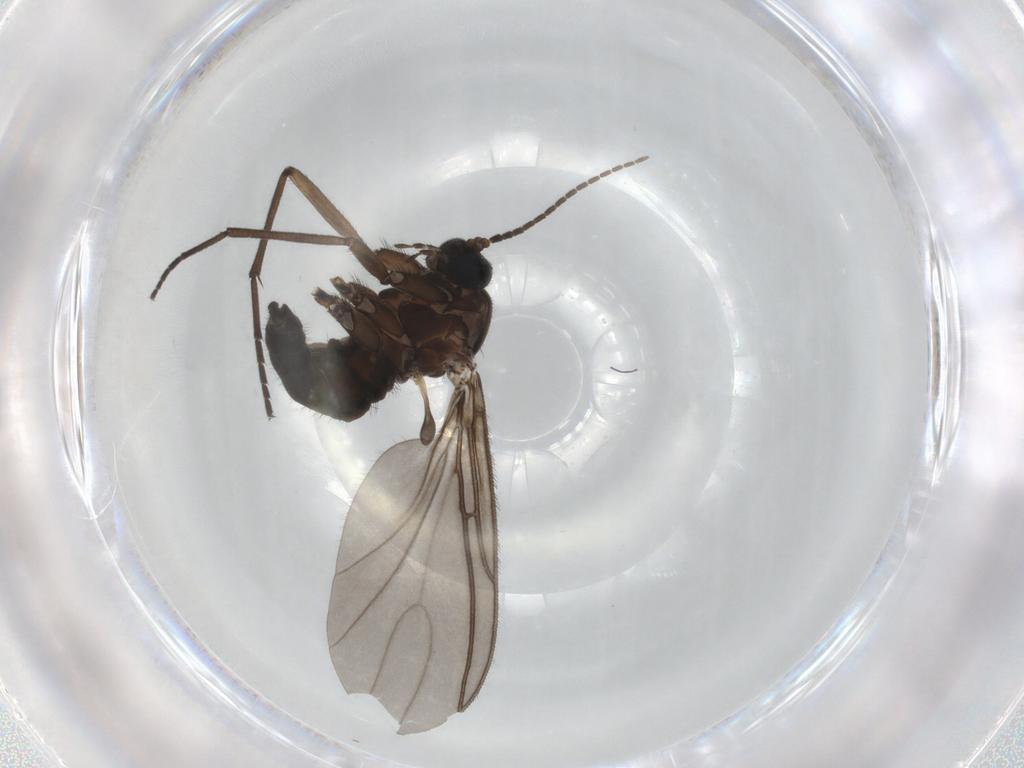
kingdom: Animalia
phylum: Arthropoda
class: Insecta
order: Diptera
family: Sciaridae
